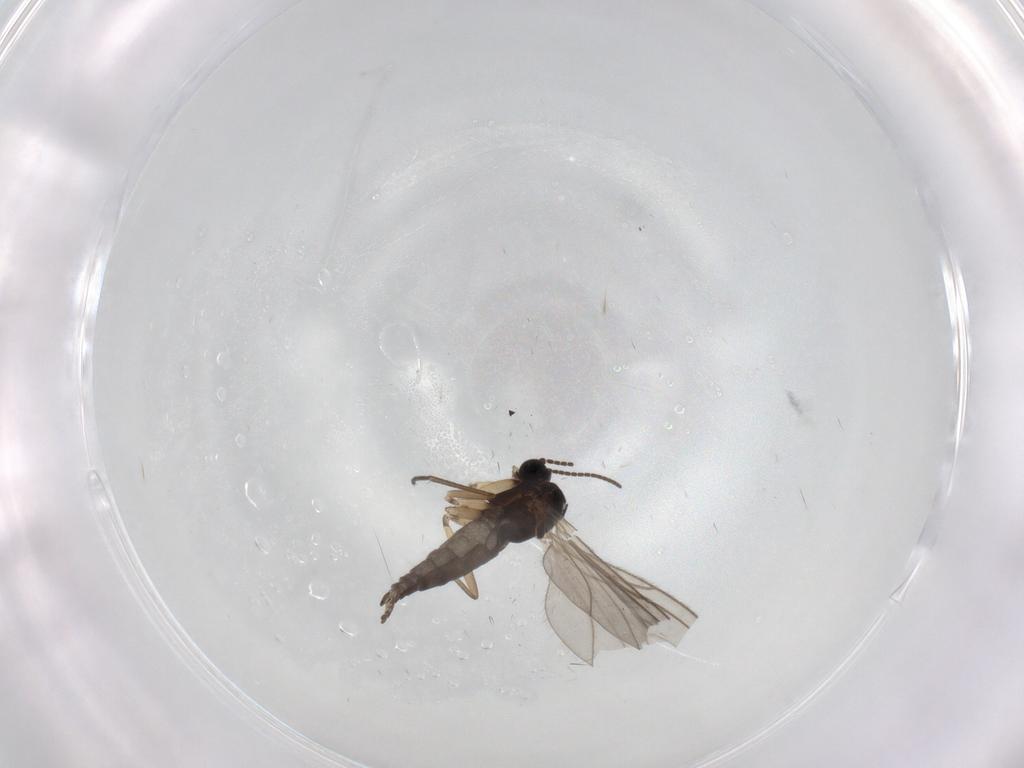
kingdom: Animalia
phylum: Arthropoda
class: Insecta
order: Diptera
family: Sciaridae
